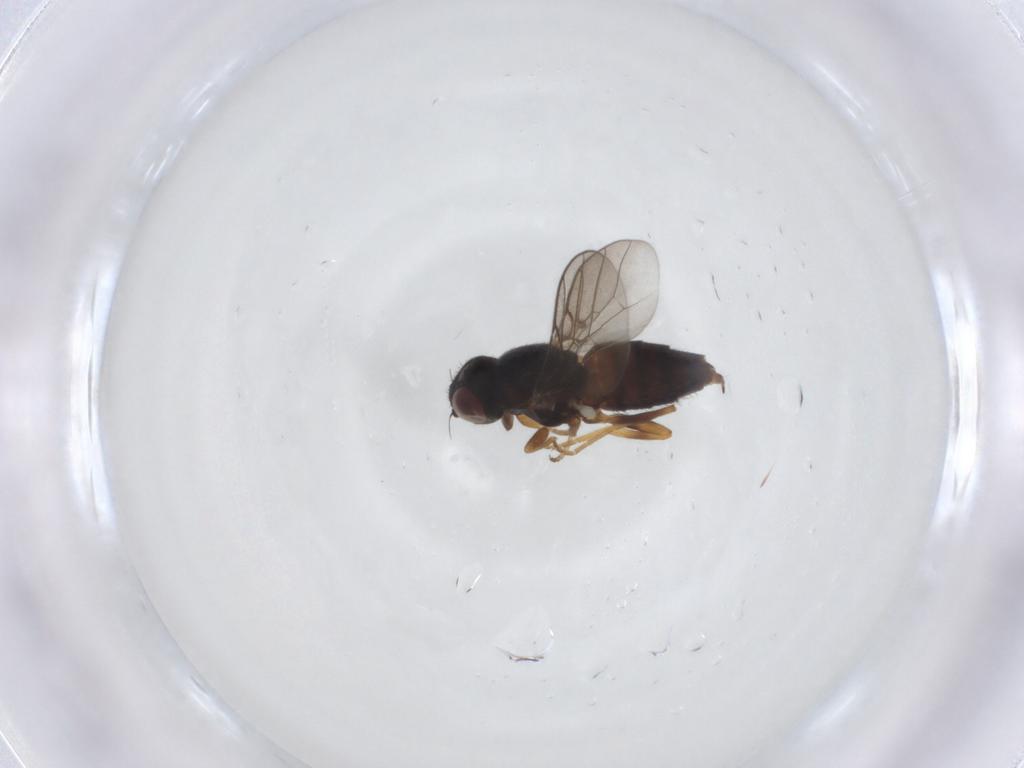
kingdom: Animalia
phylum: Arthropoda
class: Insecta
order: Diptera
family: Chloropidae
